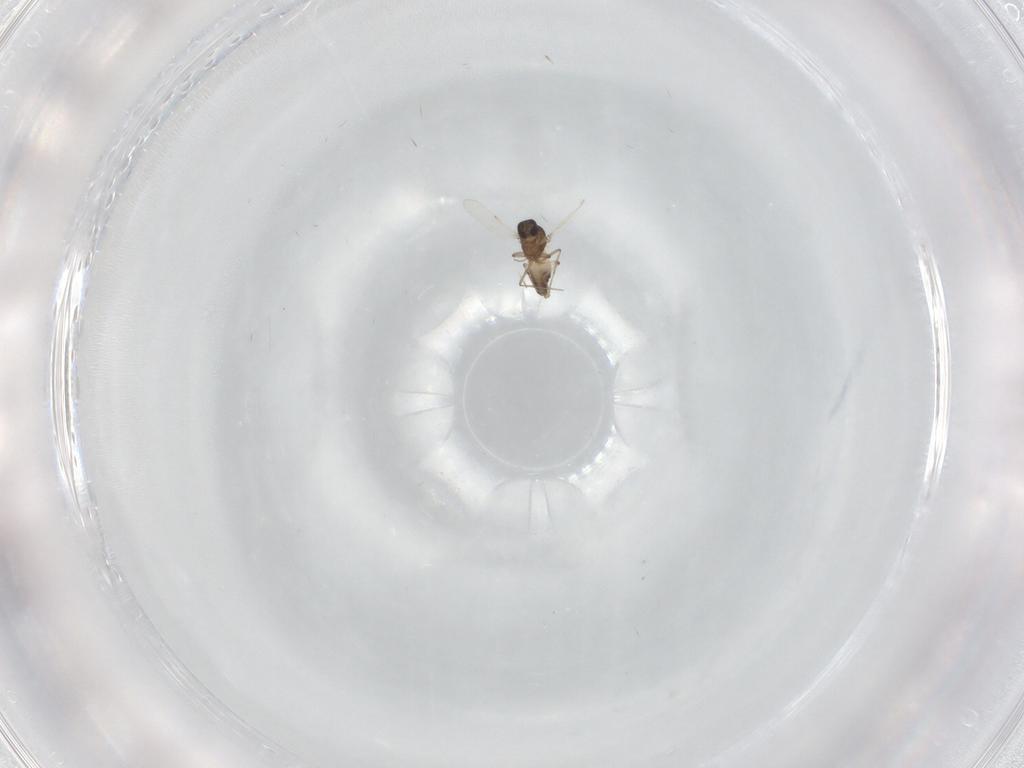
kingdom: Animalia
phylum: Arthropoda
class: Insecta
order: Diptera
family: Ceratopogonidae
